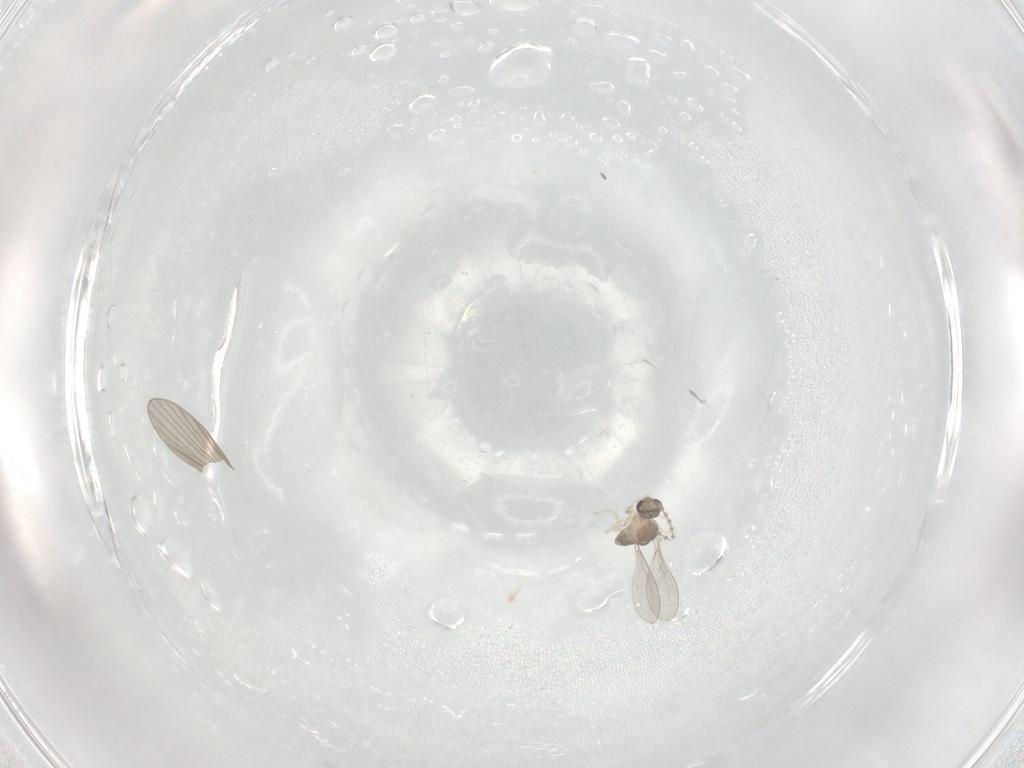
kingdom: Animalia
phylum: Arthropoda
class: Insecta
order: Diptera
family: Cecidomyiidae
